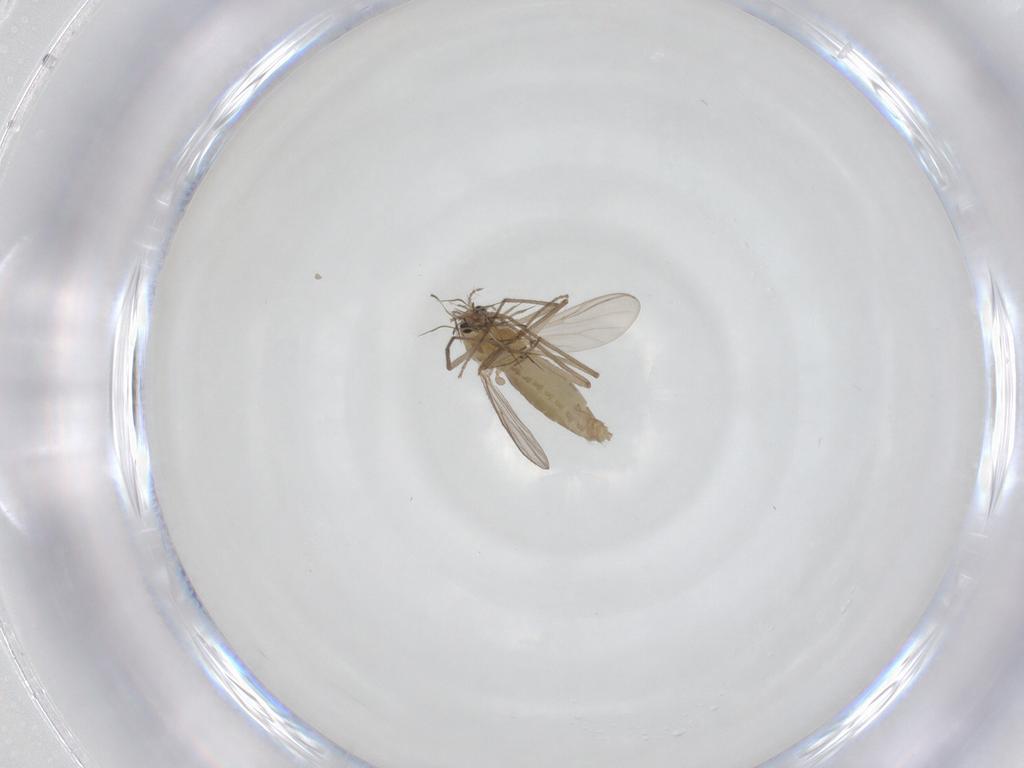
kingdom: Animalia
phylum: Arthropoda
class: Insecta
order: Diptera
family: Chironomidae
